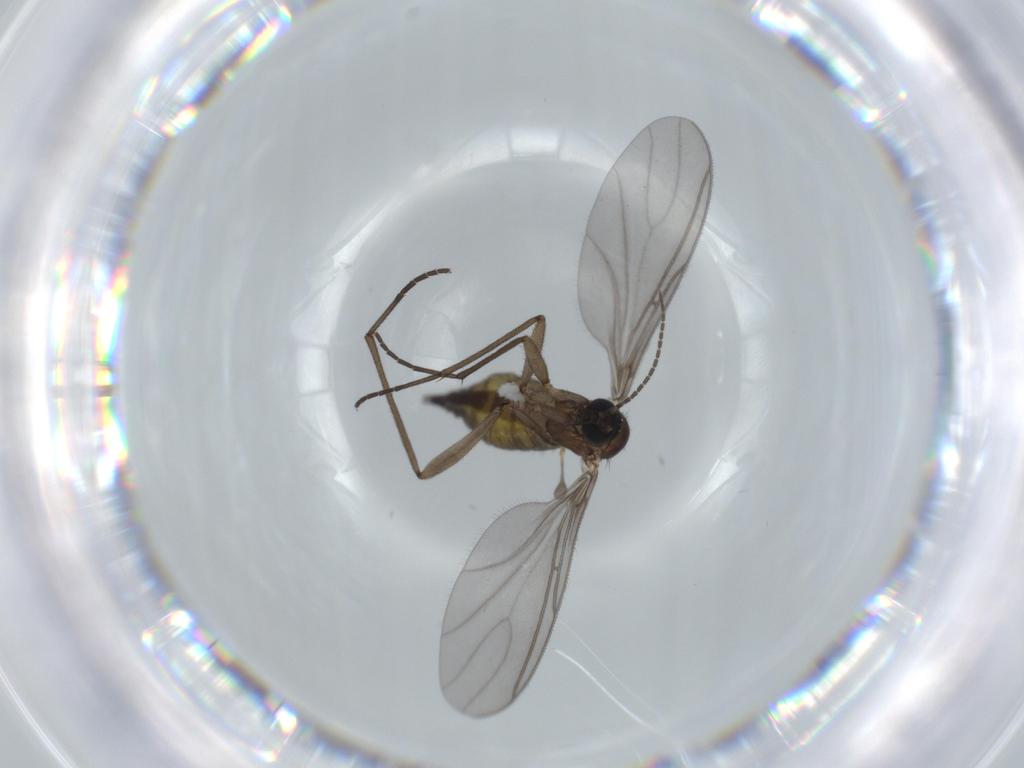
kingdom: Animalia
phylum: Arthropoda
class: Insecta
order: Diptera
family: Sciaridae
